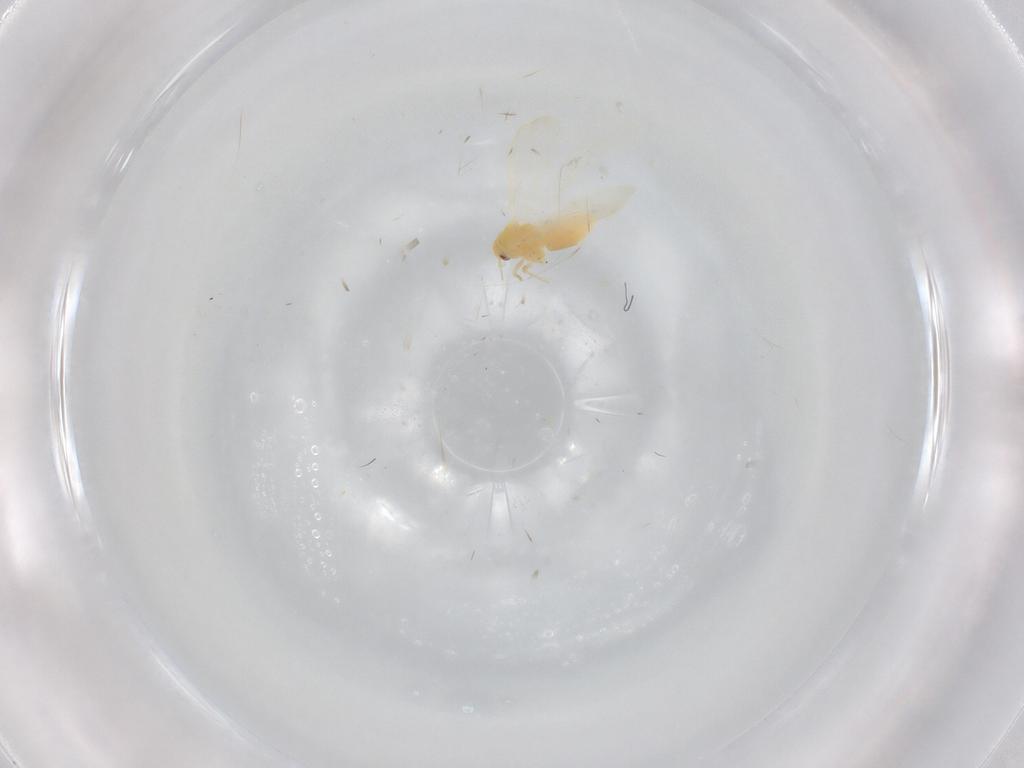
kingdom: Animalia
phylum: Arthropoda
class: Insecta
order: Hemiptera
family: Aleyrodidae
